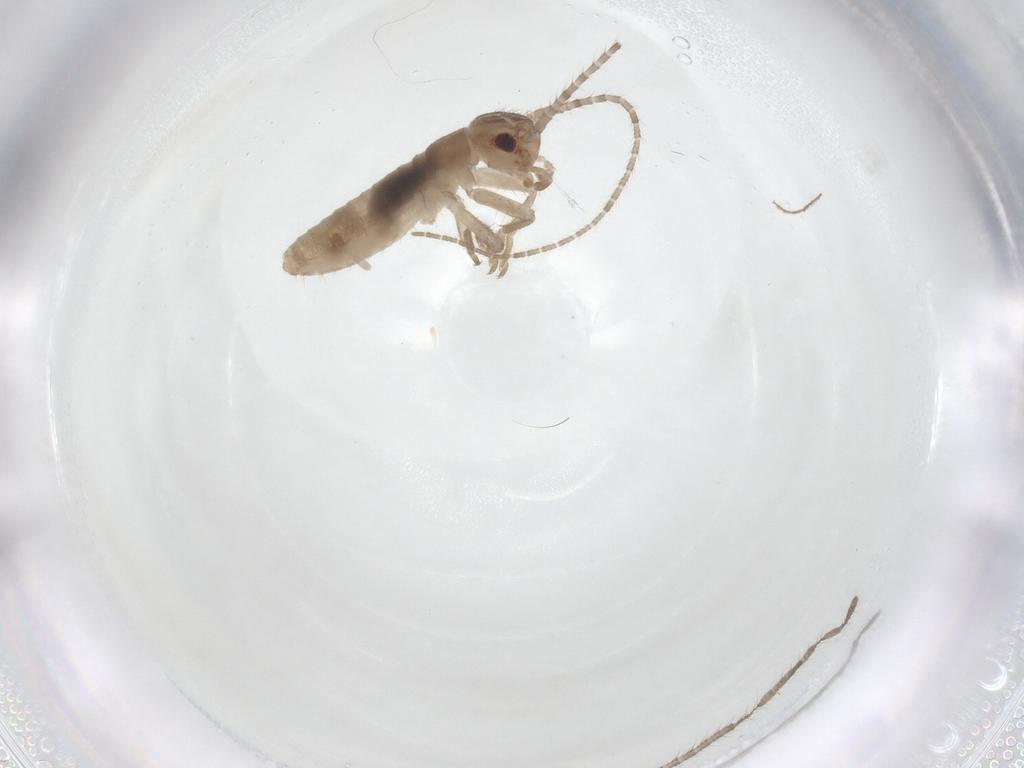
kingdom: Animalia
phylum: Arthropoda
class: Insecta
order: Orthoptera
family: Mogoplistidae
